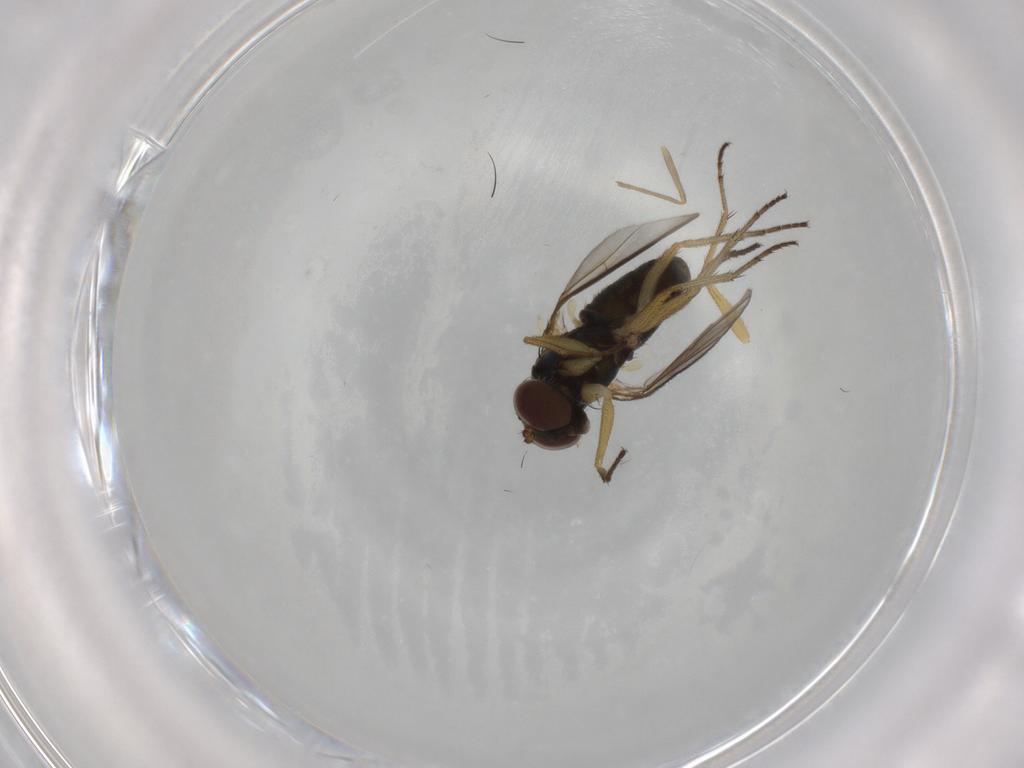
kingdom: Animalia
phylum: Arthropoda
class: Insecta
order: Diptera
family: Dolichopodidae
